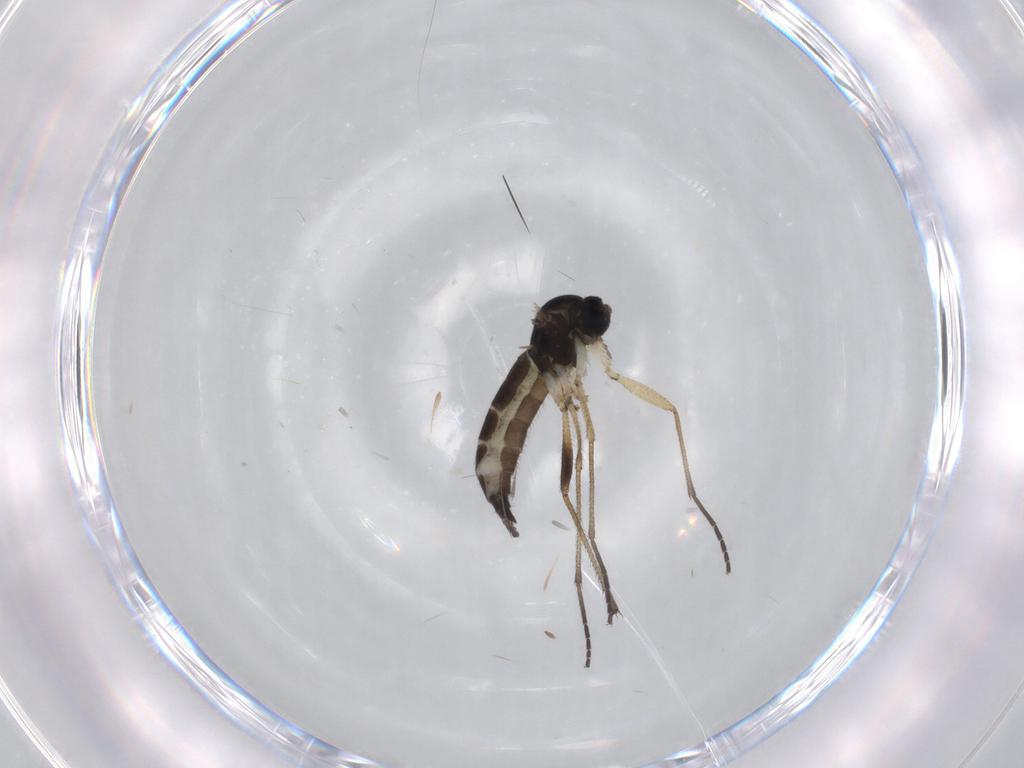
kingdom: Animalia
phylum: Arthropoda
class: Insecta
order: Diptera
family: Sciaridae
